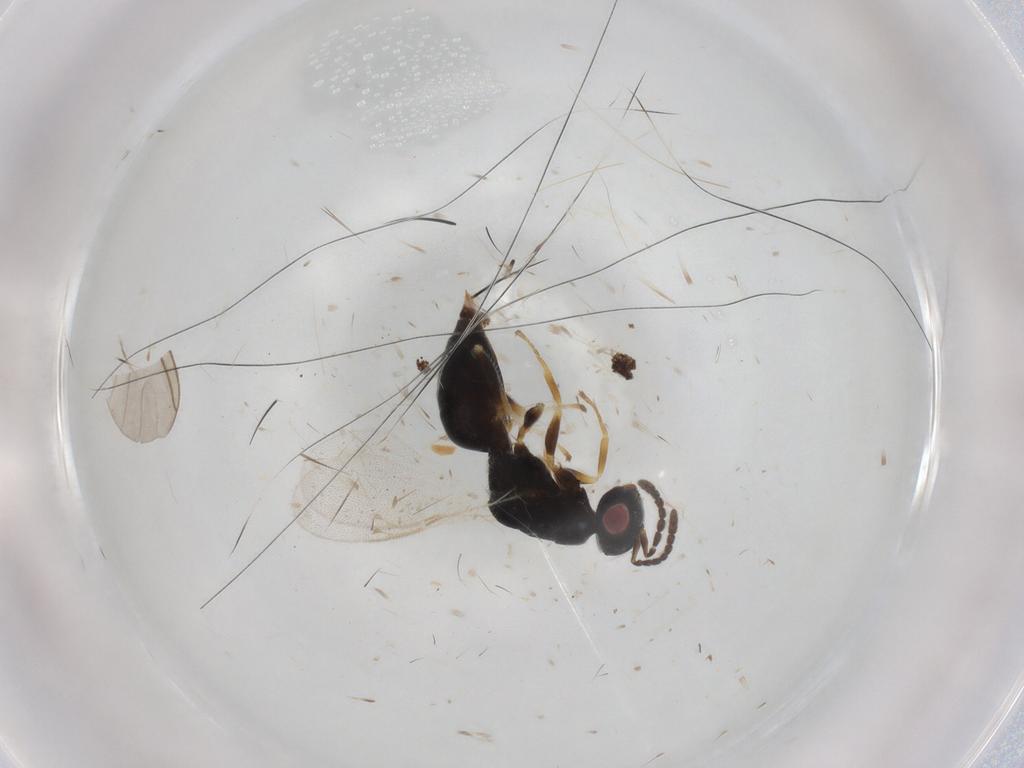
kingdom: Animalia
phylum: Arthropoda
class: Insecta
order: Hymenoptera
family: Eurytomidae
